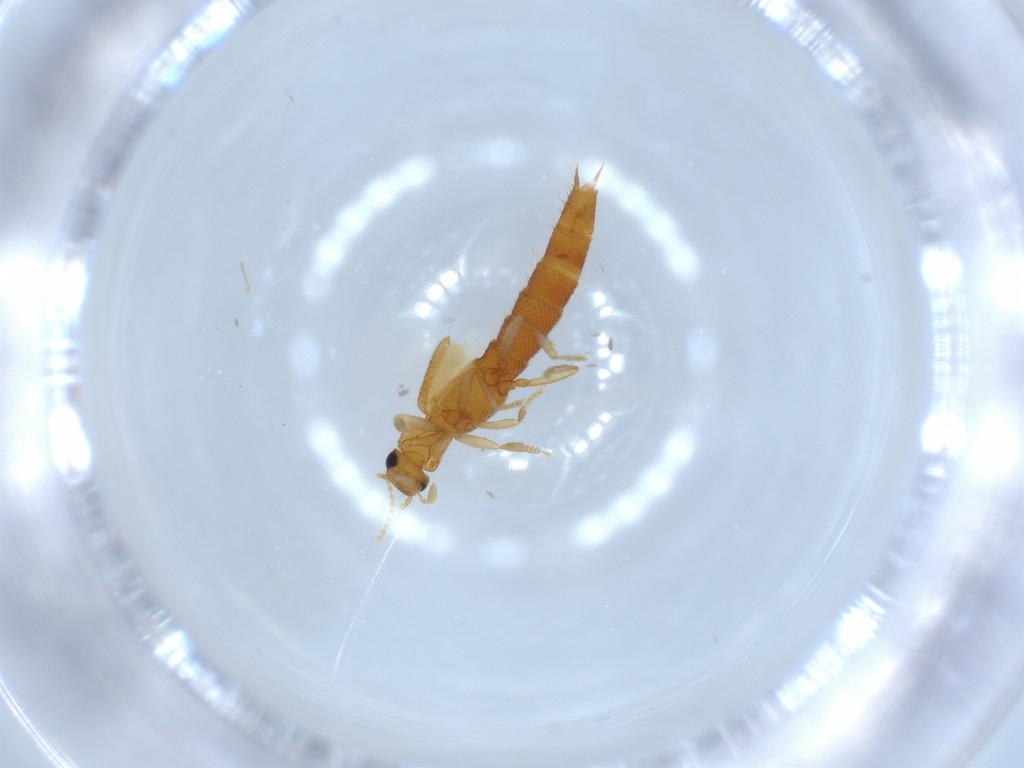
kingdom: Animalia
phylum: Arthropoda
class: Insecta
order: Coleoptera
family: Staphylinidae
